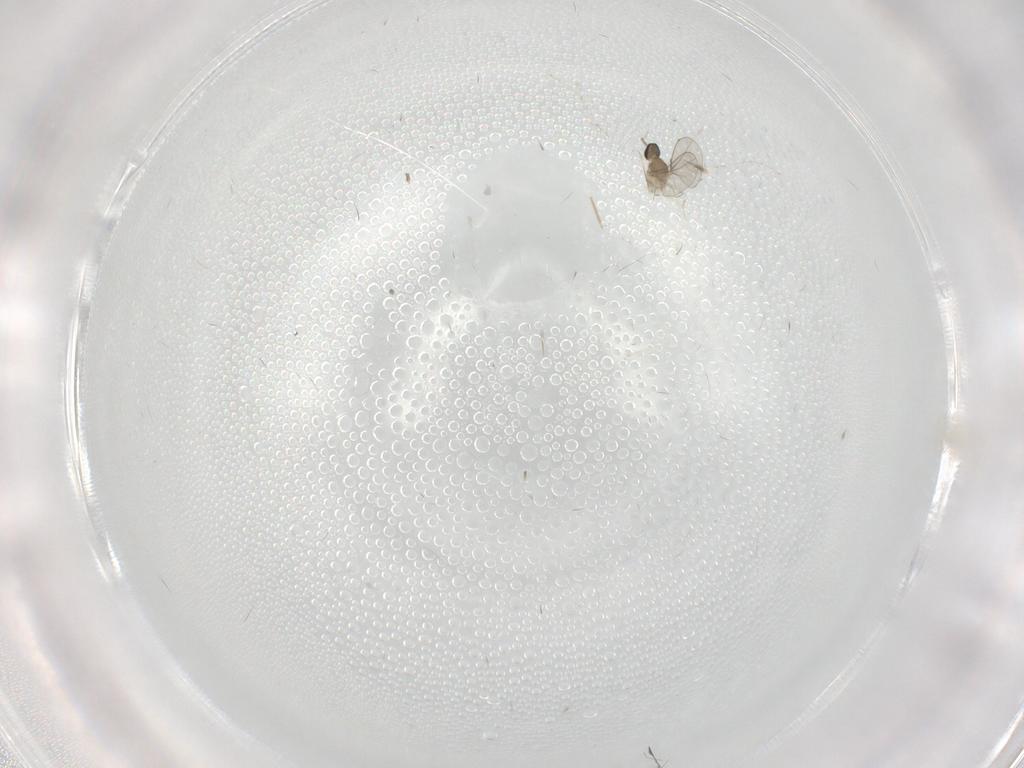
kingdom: Animalia
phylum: Arthropoda
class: Insecta
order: Diptera
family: Cecidomyiidae
